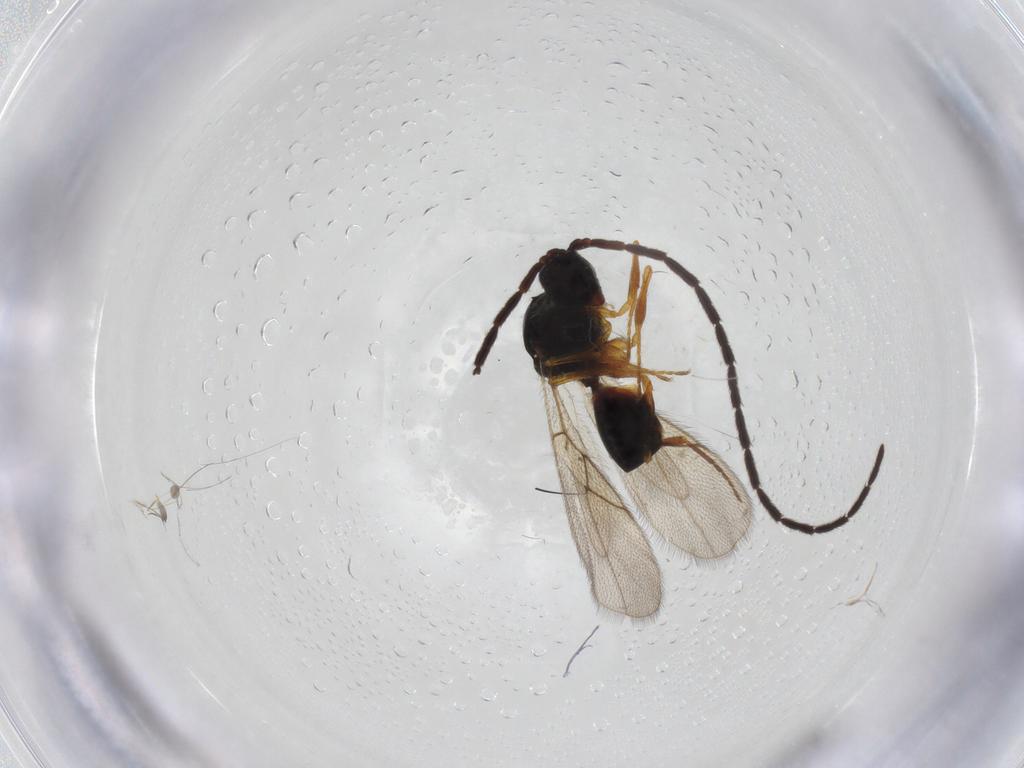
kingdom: Animalia
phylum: Arthropoda
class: Insecta
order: Hymenoptera
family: Figitidae
